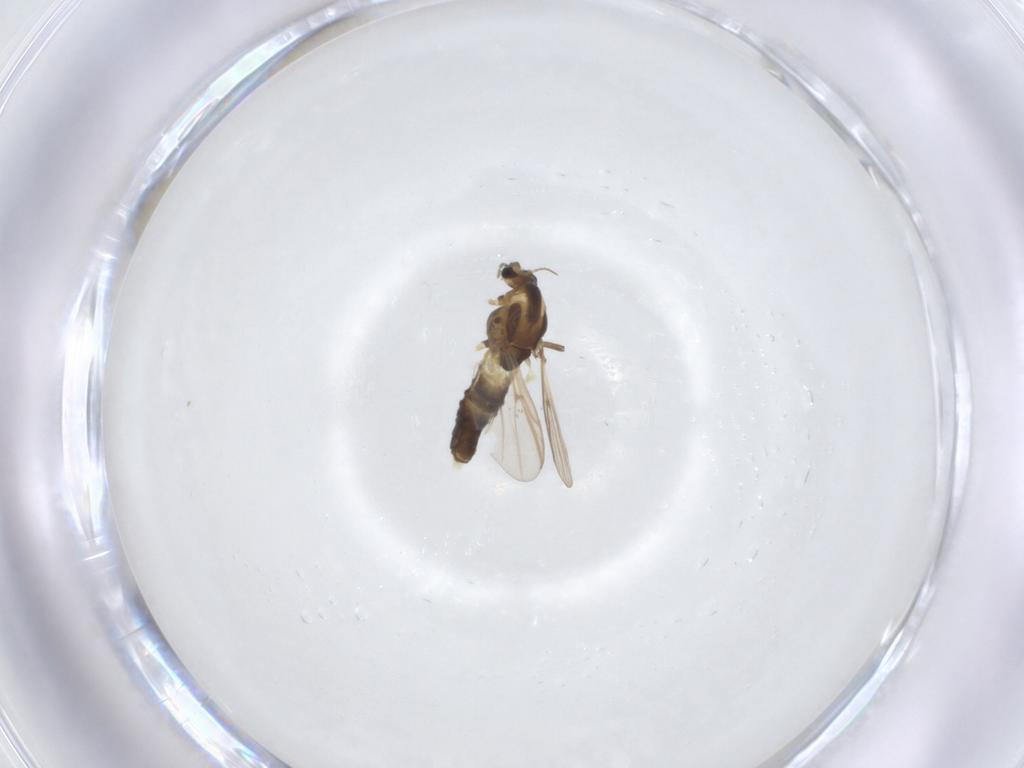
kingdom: Animalia
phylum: Arthropoda
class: Insecta
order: Diptera
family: Chironomidae
